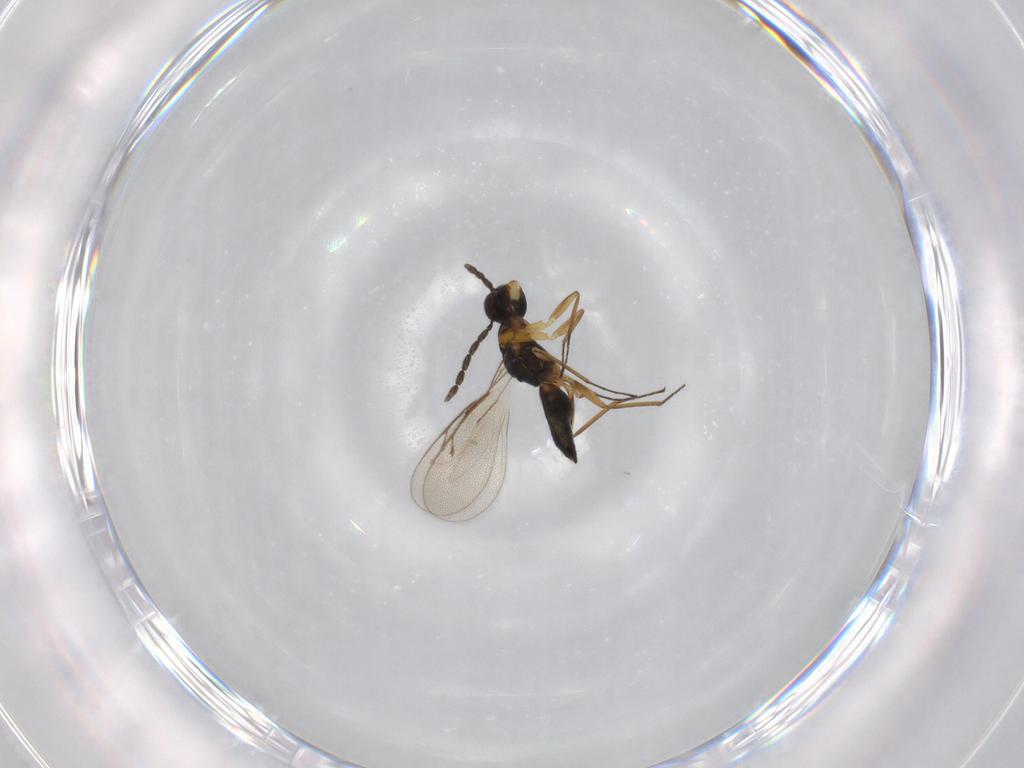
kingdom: Animalia
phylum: Arthropoda
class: Insecta
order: Hymenoptera
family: Eulophidae
